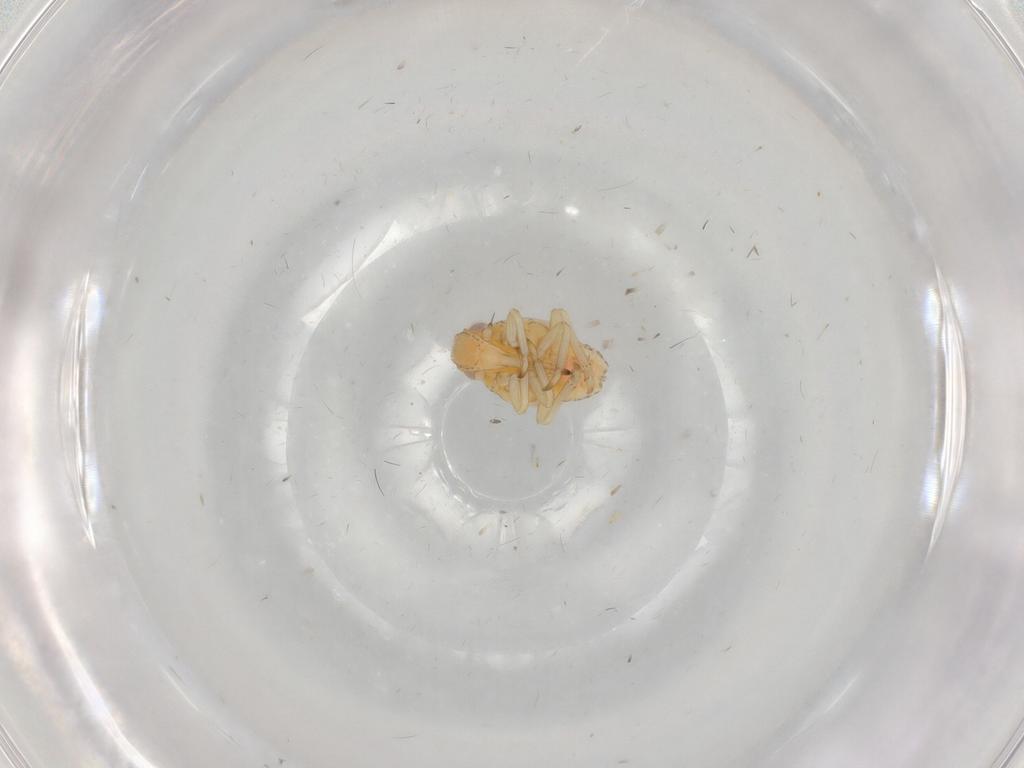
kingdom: Animalia
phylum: Arthropoda
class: Insecta
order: Hemiptera
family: Tropiduchidae
